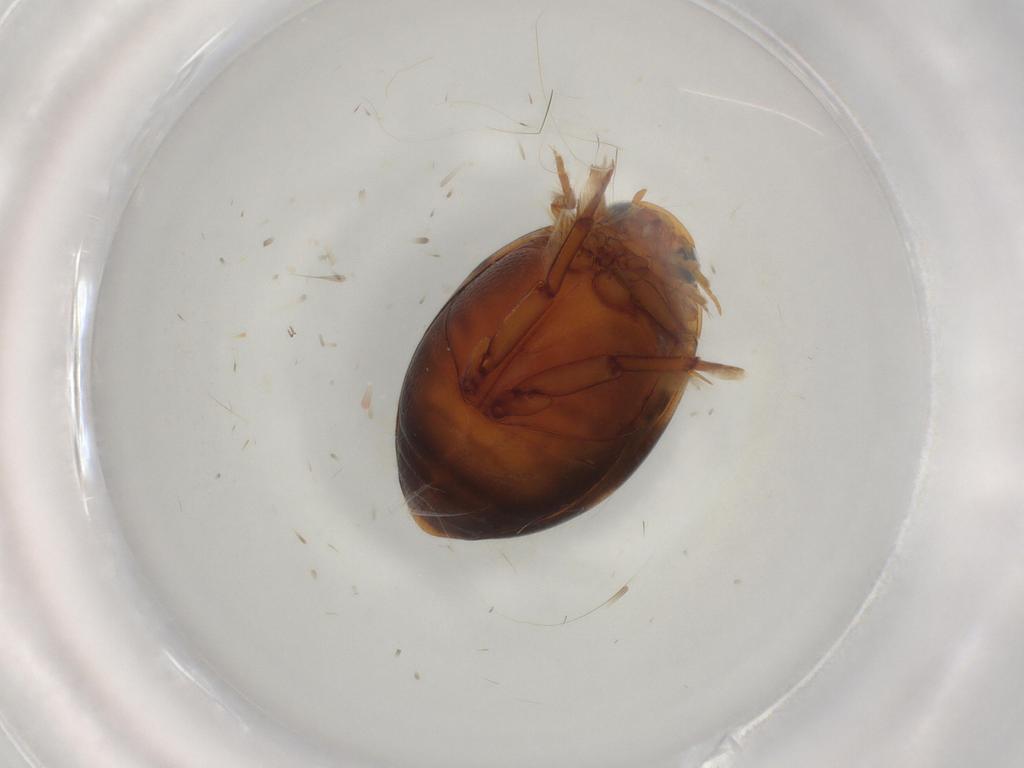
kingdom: Animalia
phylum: Arthropoda
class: Insecta
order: Coleoptera
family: Dytiscidae
